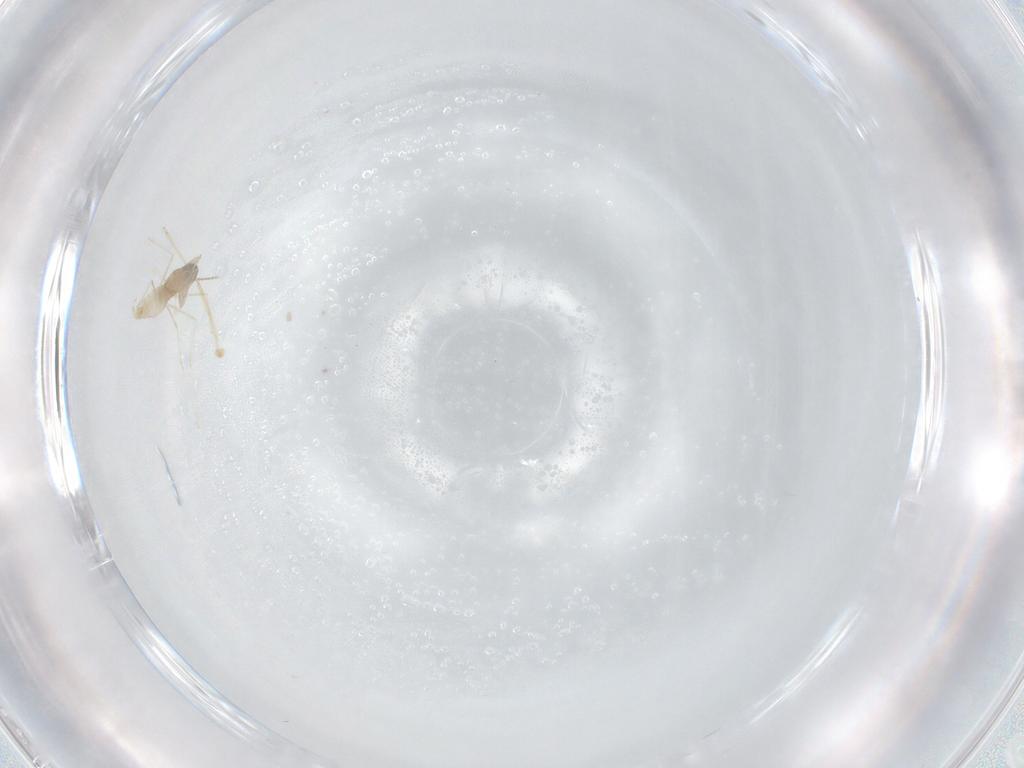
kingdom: Animalia
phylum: Arthropoda
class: Insecta
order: Diptera
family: Cecidomyiidae
